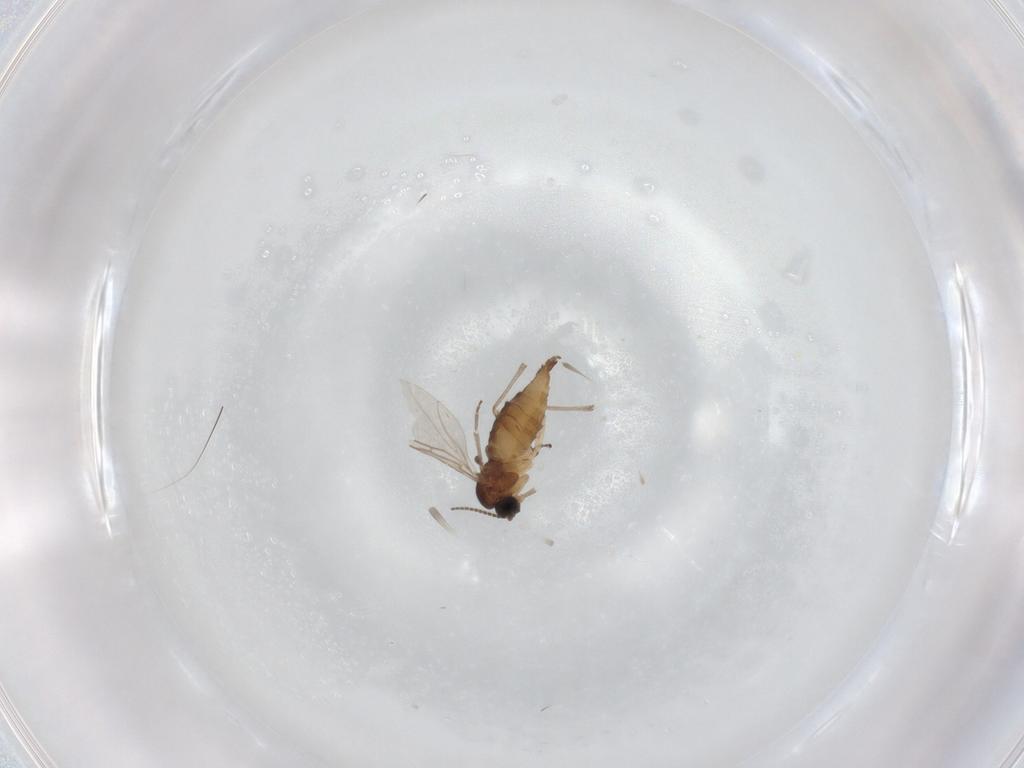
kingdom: Animalia
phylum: Arthropoda
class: Insecta
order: Diptera
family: Sciaridae
